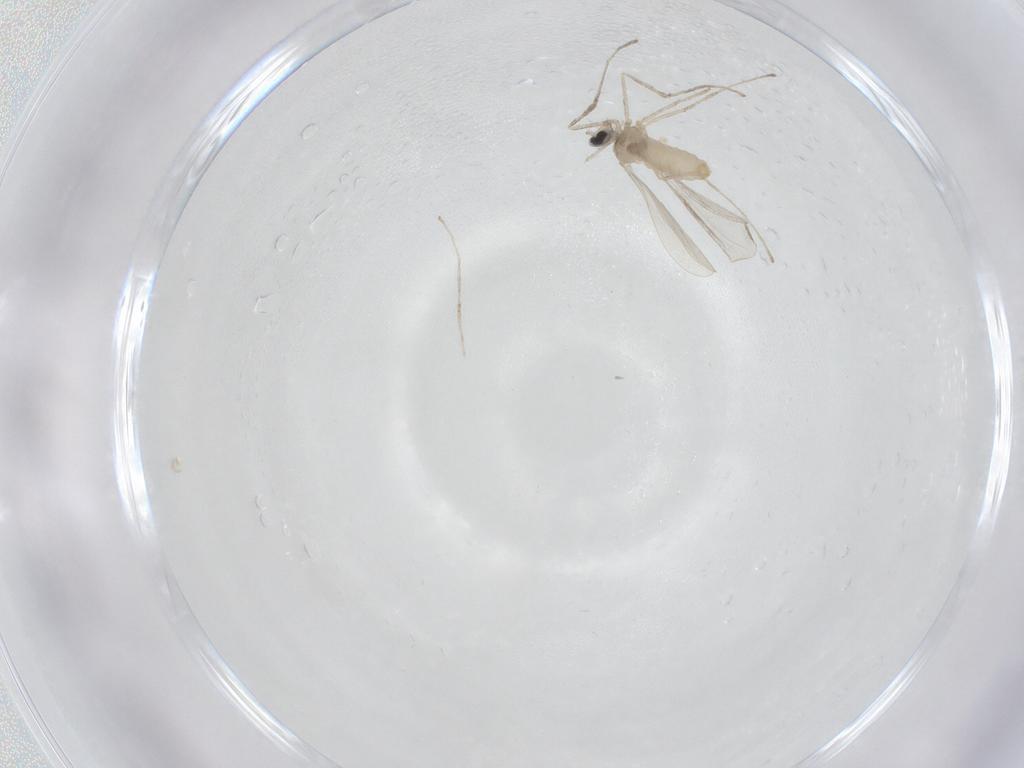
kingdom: Animalia
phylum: Arthropoda
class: Insecta
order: Diptera
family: Cecidomyiidae
